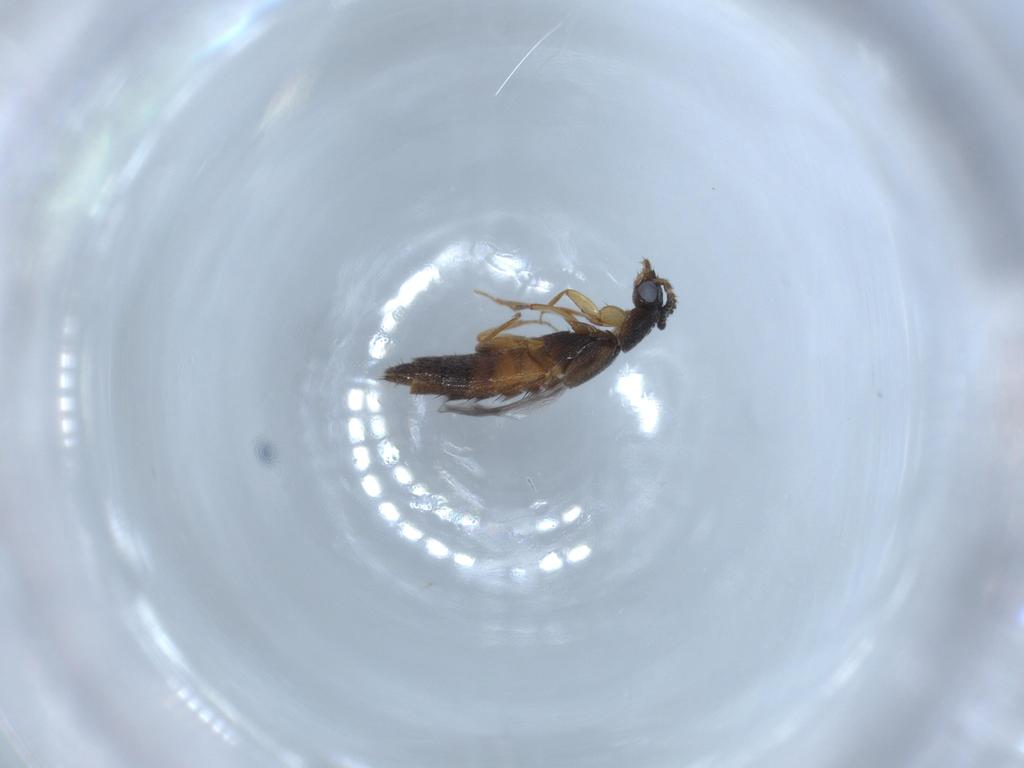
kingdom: Animalia
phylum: Arthropoda
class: Insecta
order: Coleoptera
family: Staphylinidae
